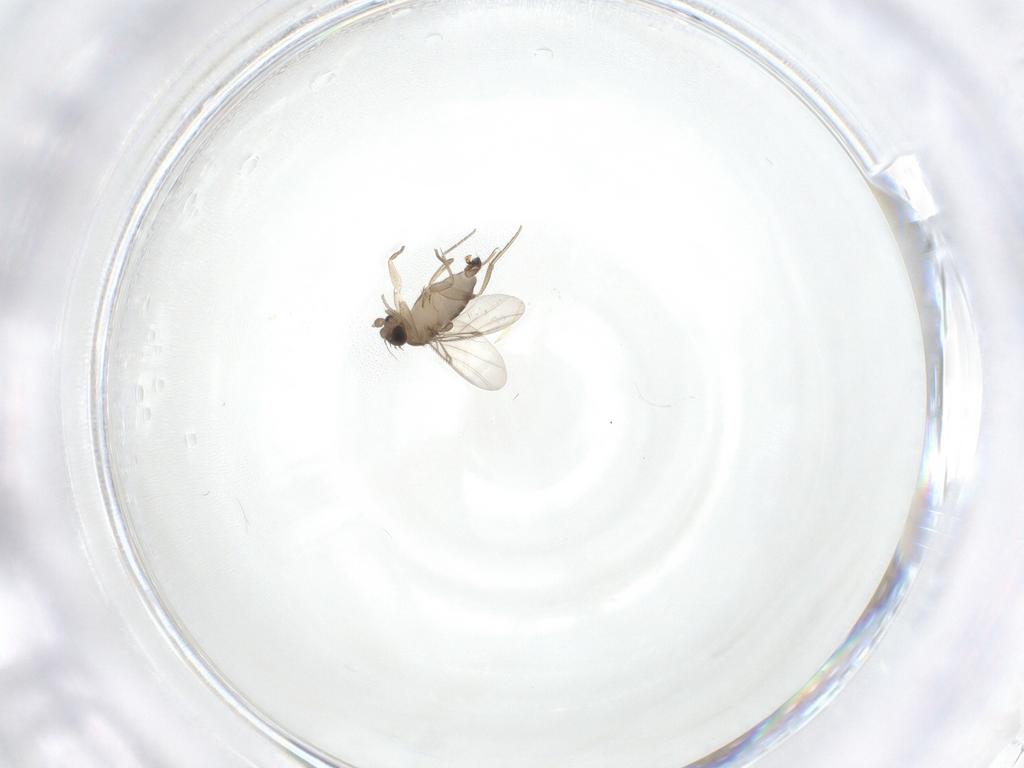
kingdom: Animalia
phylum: Arthropoda
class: Insecta
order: Diptera
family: Phoridae
